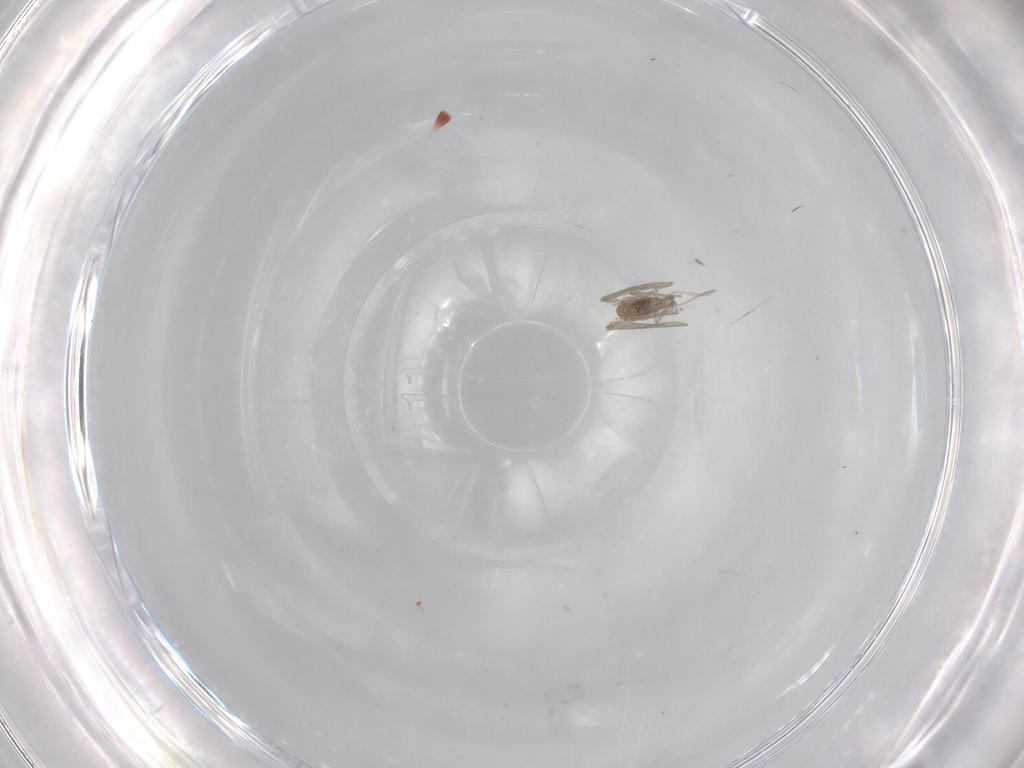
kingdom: Animalia
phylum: Arthropoda
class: Insecta
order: Diptera
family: Psychodidae
